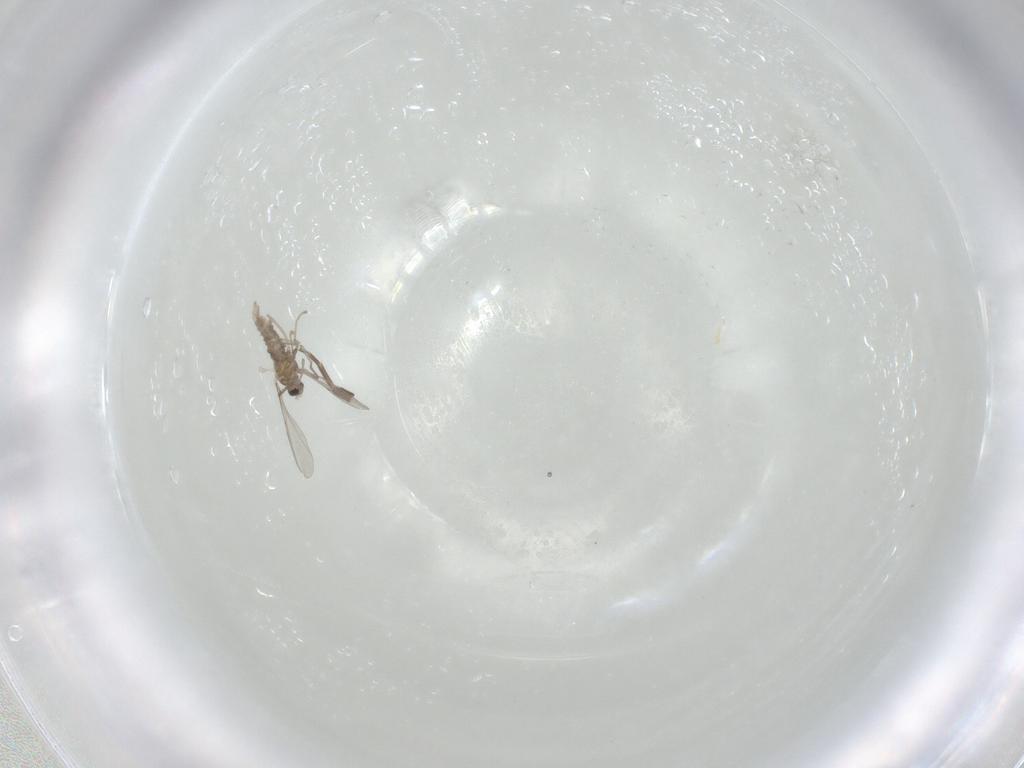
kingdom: Animalia
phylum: Arthropoda
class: Insecta
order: Diptera
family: Phoridae
